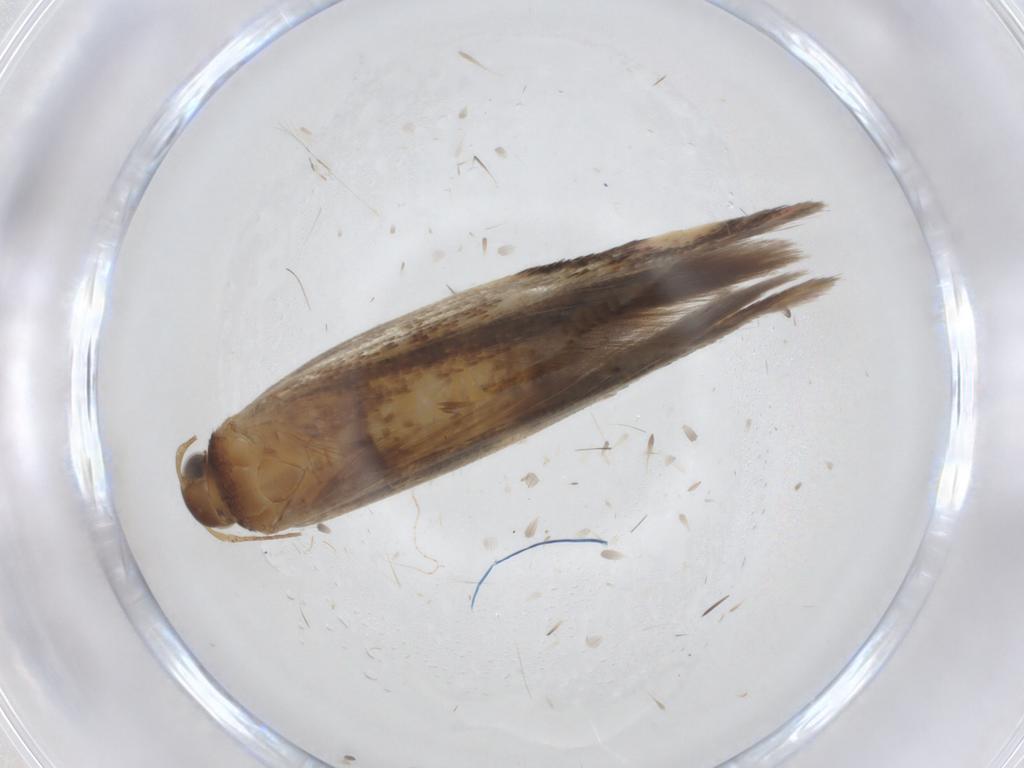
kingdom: Animalia
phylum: Arthropoda
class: Insecta
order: Lepidoptera
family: Gelechiidae
